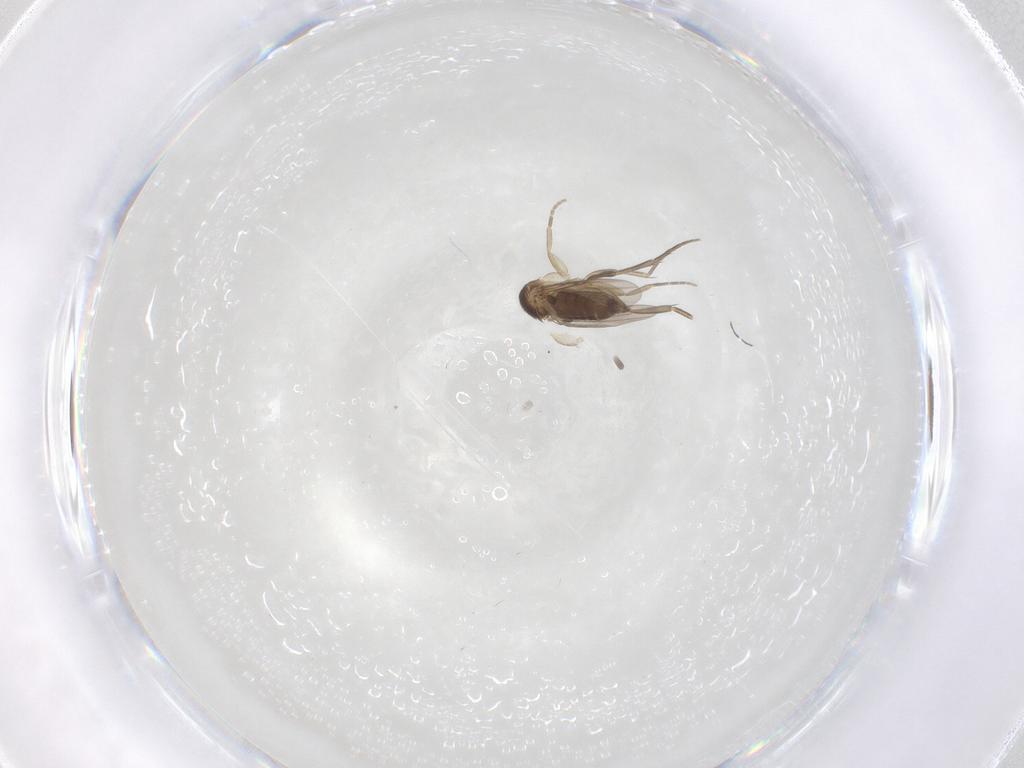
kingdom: Animalia
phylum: Arthropoda
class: Insecta
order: Diptera
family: Phoridae
